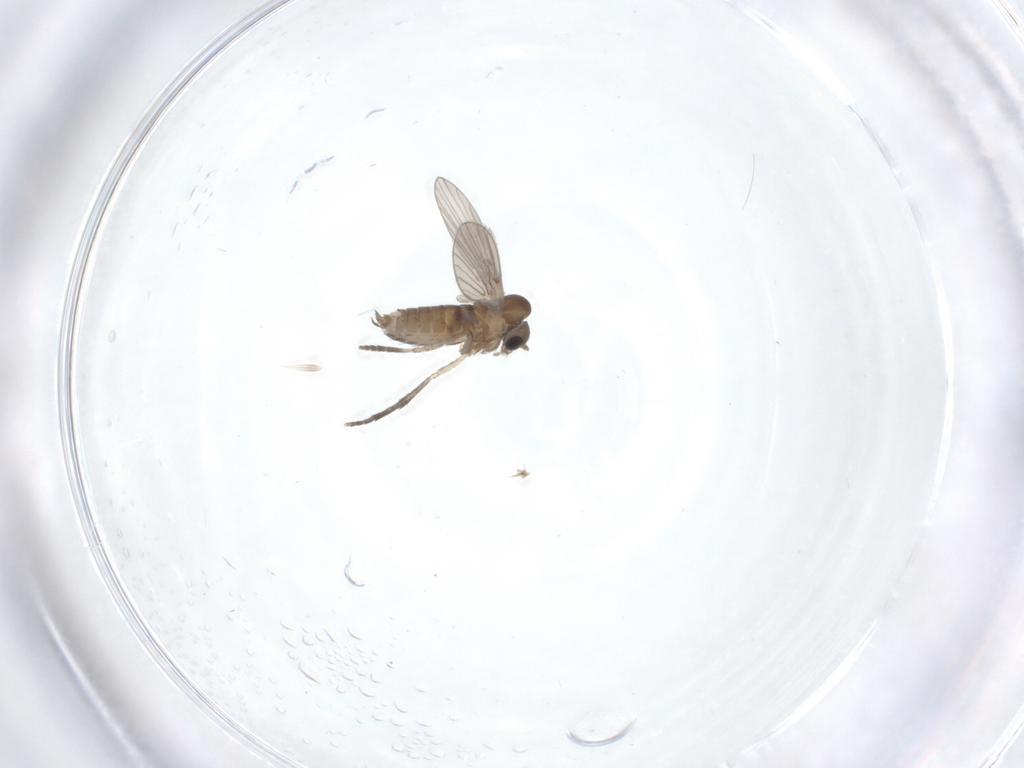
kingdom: Animalia
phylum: Arthropoda
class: Insecta
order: Diptera
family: Psychodidae
